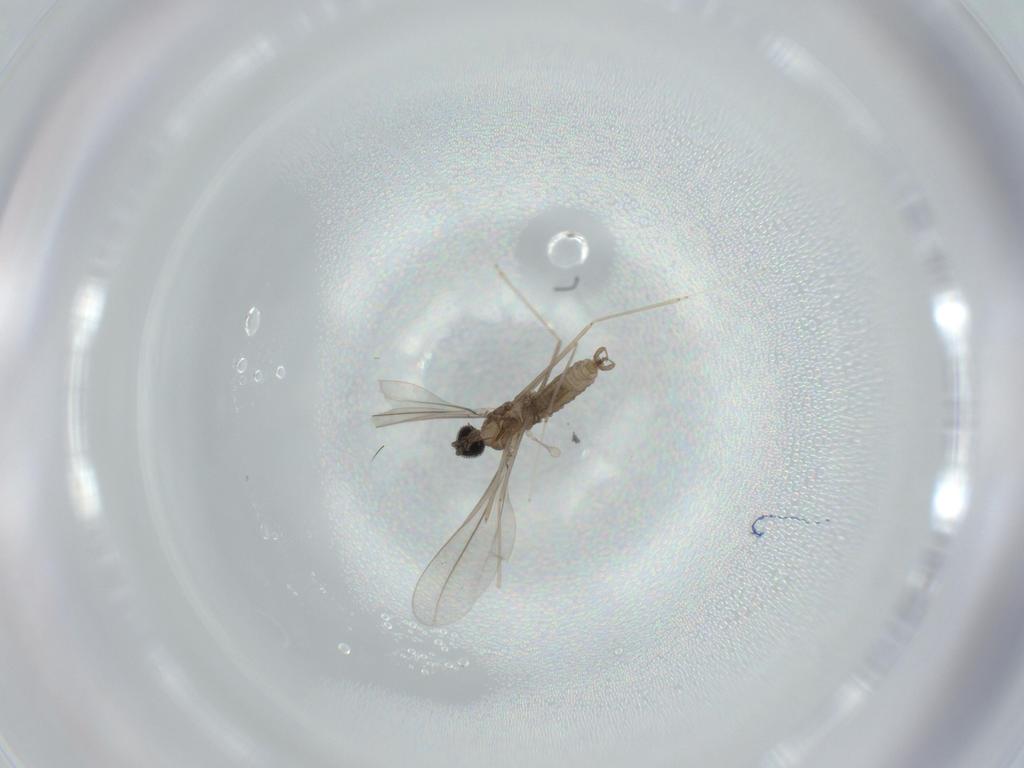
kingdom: Animalia
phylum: Arthropoda
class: Insecta
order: Diptera
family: Cecidomyiidae
